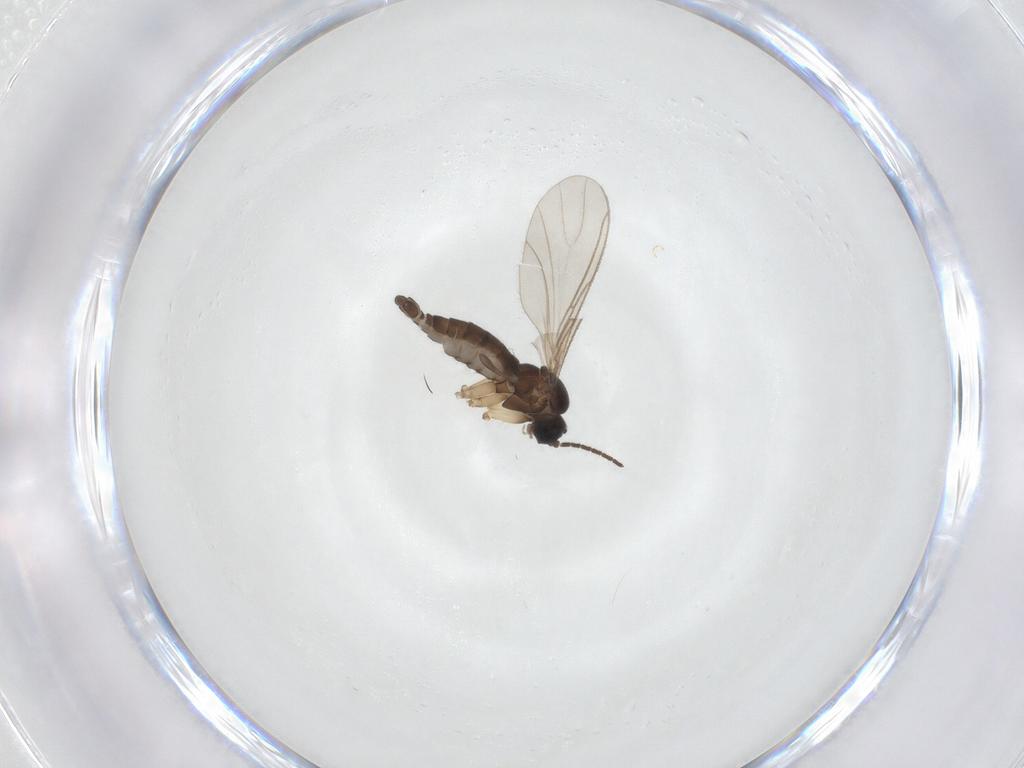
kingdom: Animalia
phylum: Arthropoda
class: Insecta
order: Diptera
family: Sciaridae
